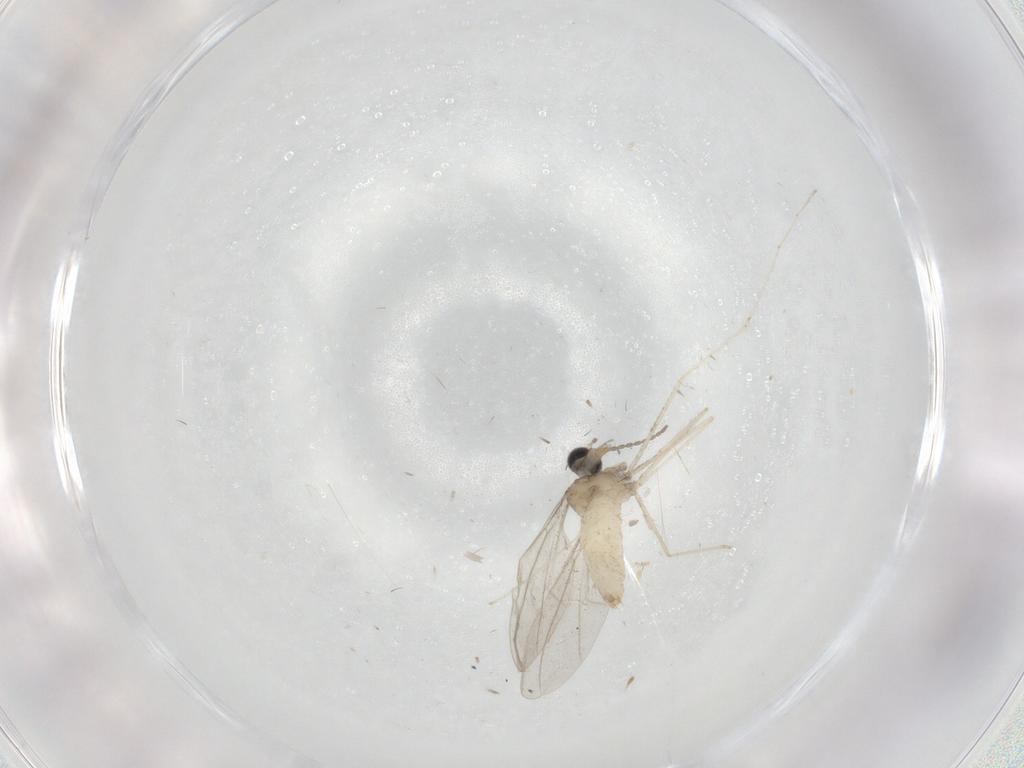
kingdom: Animalia
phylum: Arthropoda
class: Insecta
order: Diptera
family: Cecidomyiidae
